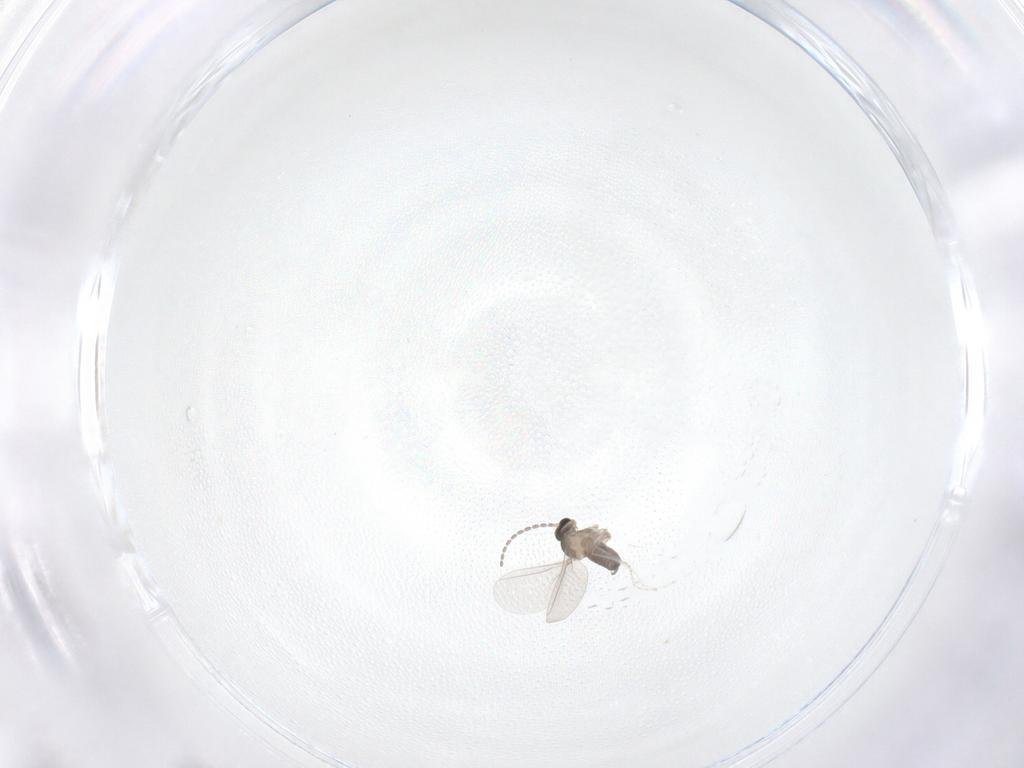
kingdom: Animalia
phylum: Arthropoda
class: Insecta
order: Diptera
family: Cecidomyiidae
